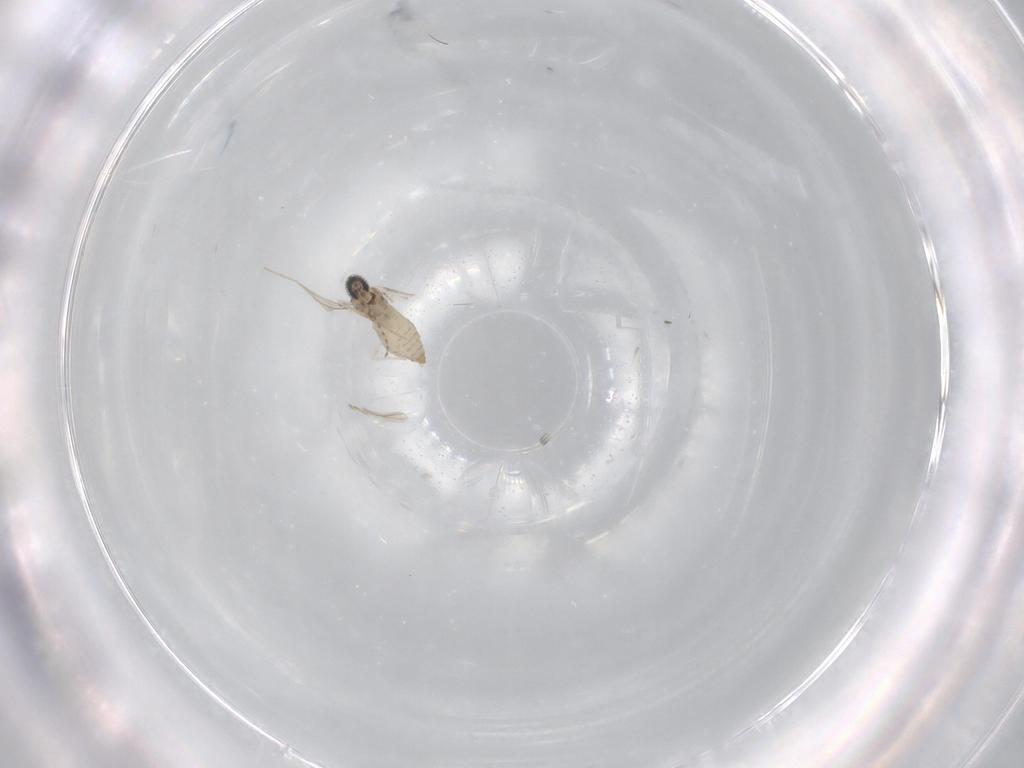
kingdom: Animalia
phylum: Arthropoda
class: Insecta
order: Diptera
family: Cecidomyiidae
